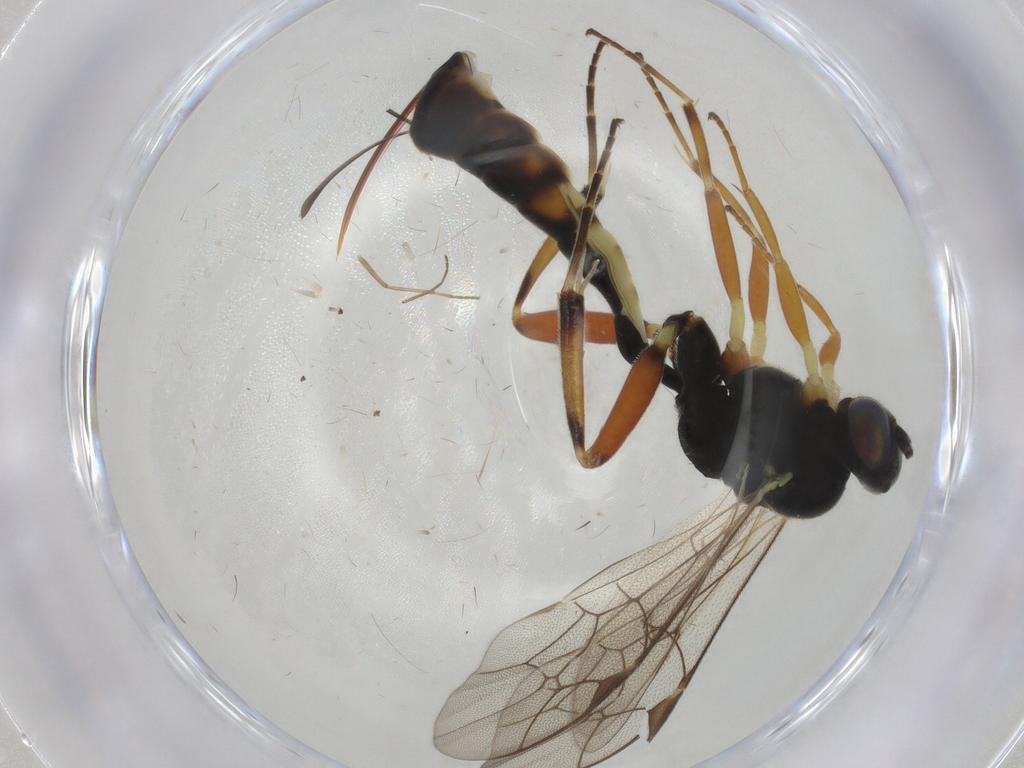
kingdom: Animalia
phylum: Arthropoda
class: Insecta
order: Hymenoptera
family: Ichneumonidae
